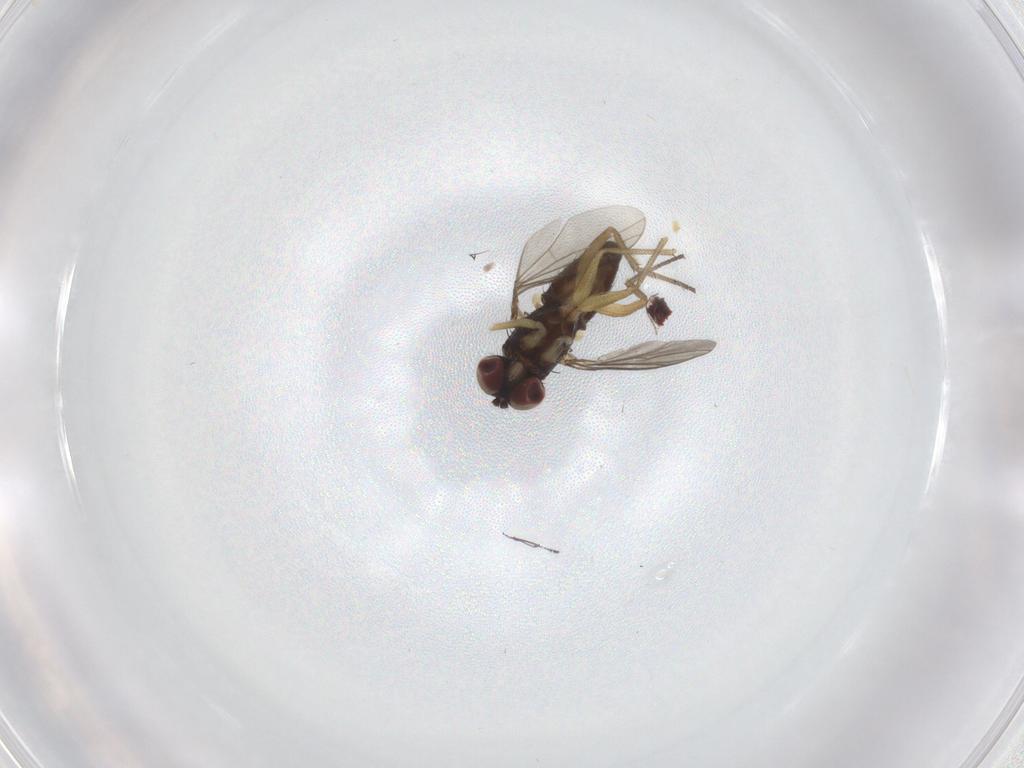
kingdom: Animalia
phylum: Arthropoda
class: Insecta
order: Diptera
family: Dolichopodidae
